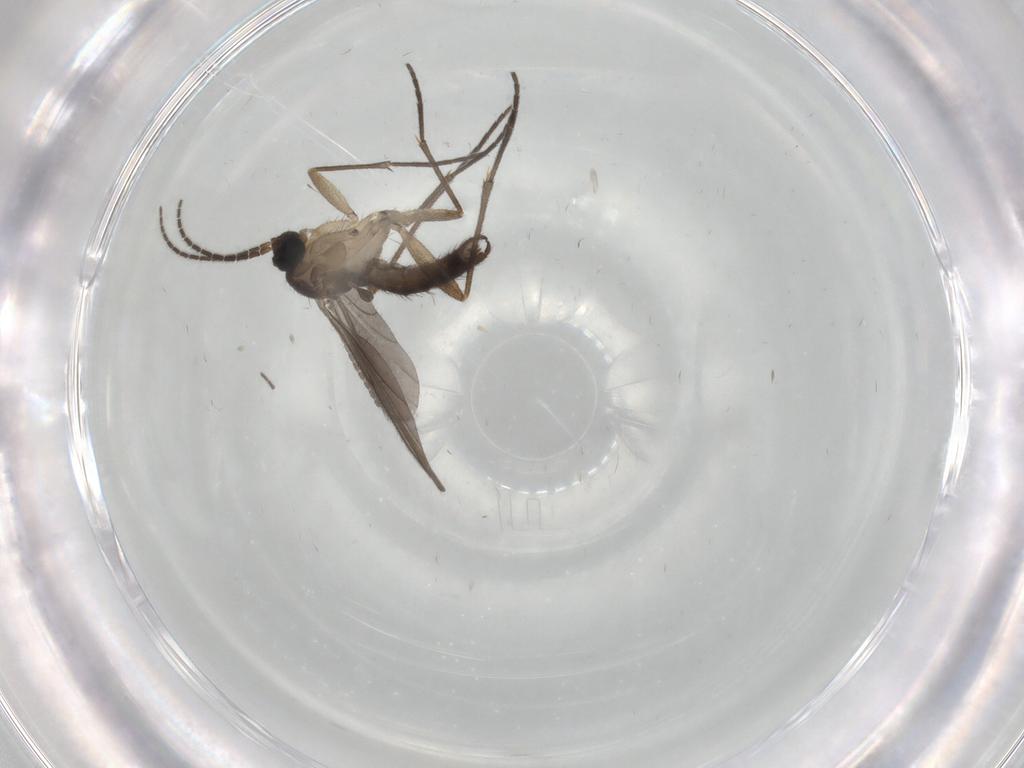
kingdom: Animalia
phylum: Arthropoda
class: Insecta
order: Diptera
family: Sciaridae
